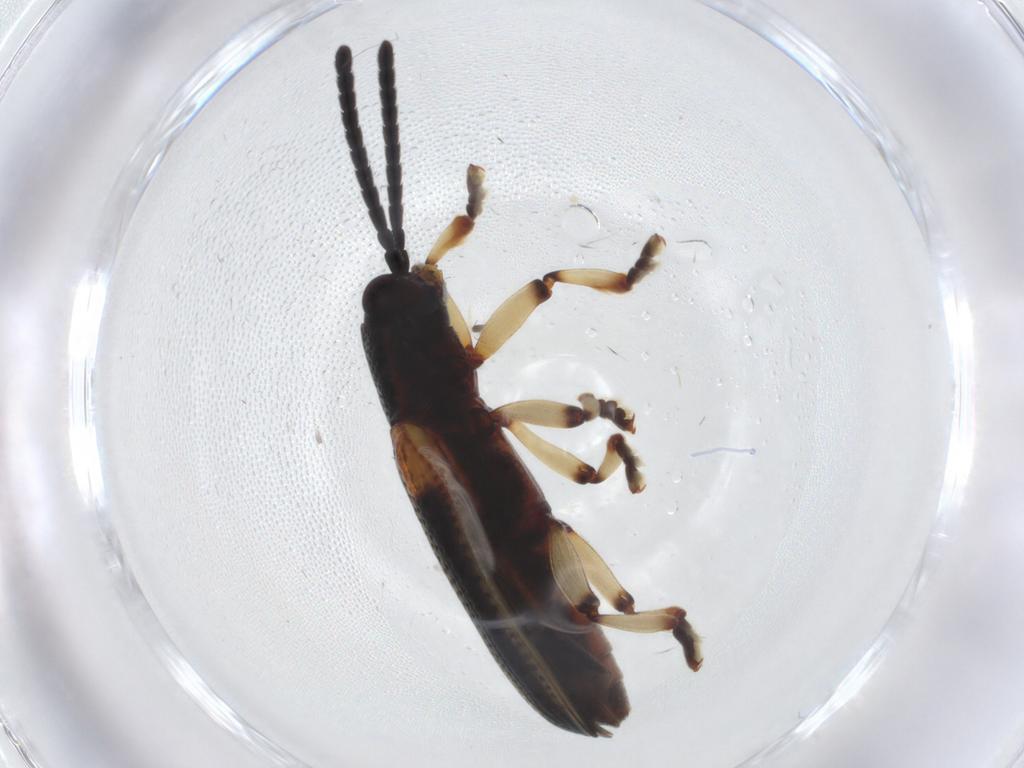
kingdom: Animalia
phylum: Arthropoda
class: Insecta
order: Coleoptera
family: Chrysomelidae
